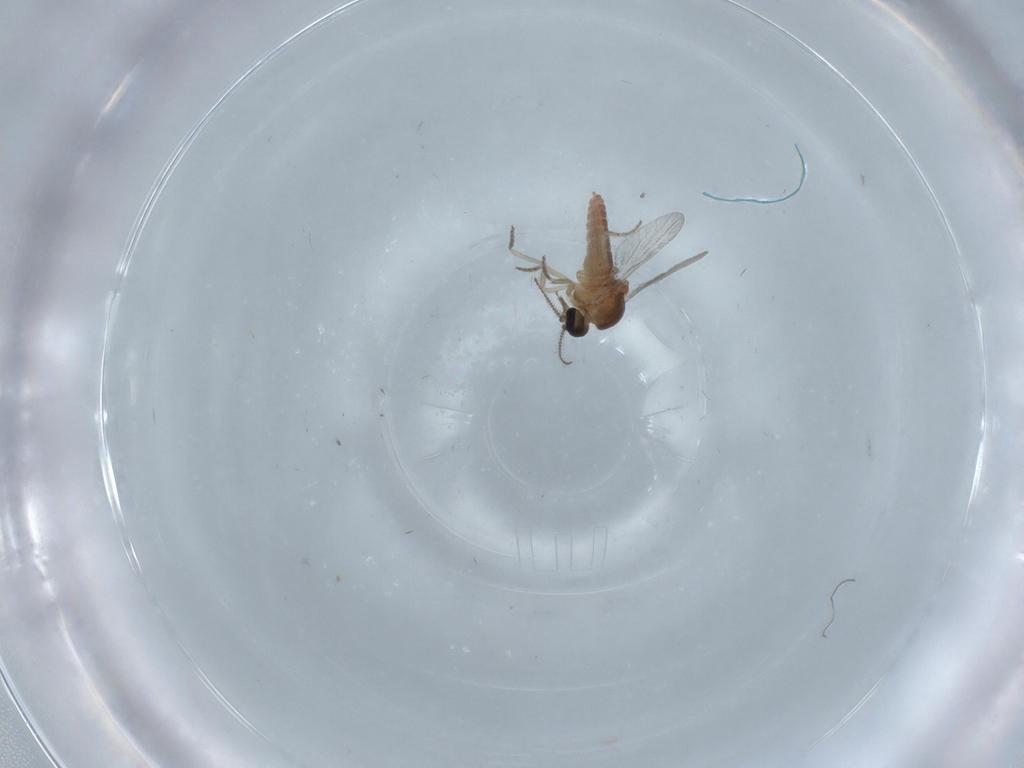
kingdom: Animalia
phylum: Arthropoda
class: Insecta
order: Diptera
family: Ceratopogonidae
